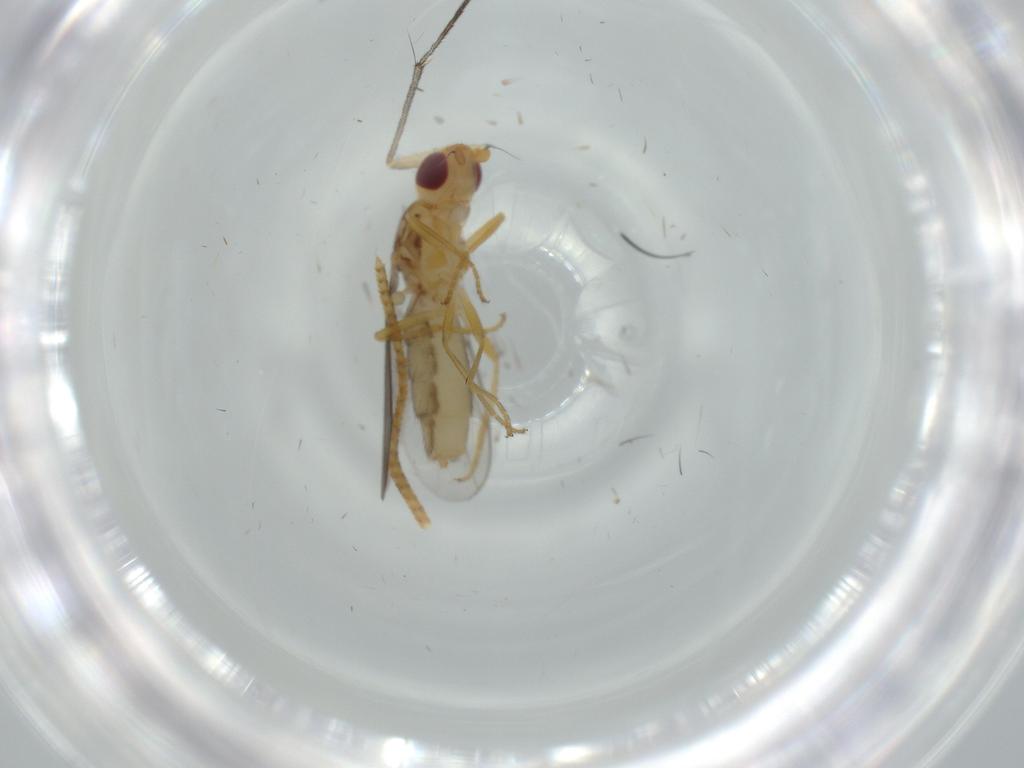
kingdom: Animalia
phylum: Arthropoda
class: Insecta
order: Diptera
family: Chloropidae
